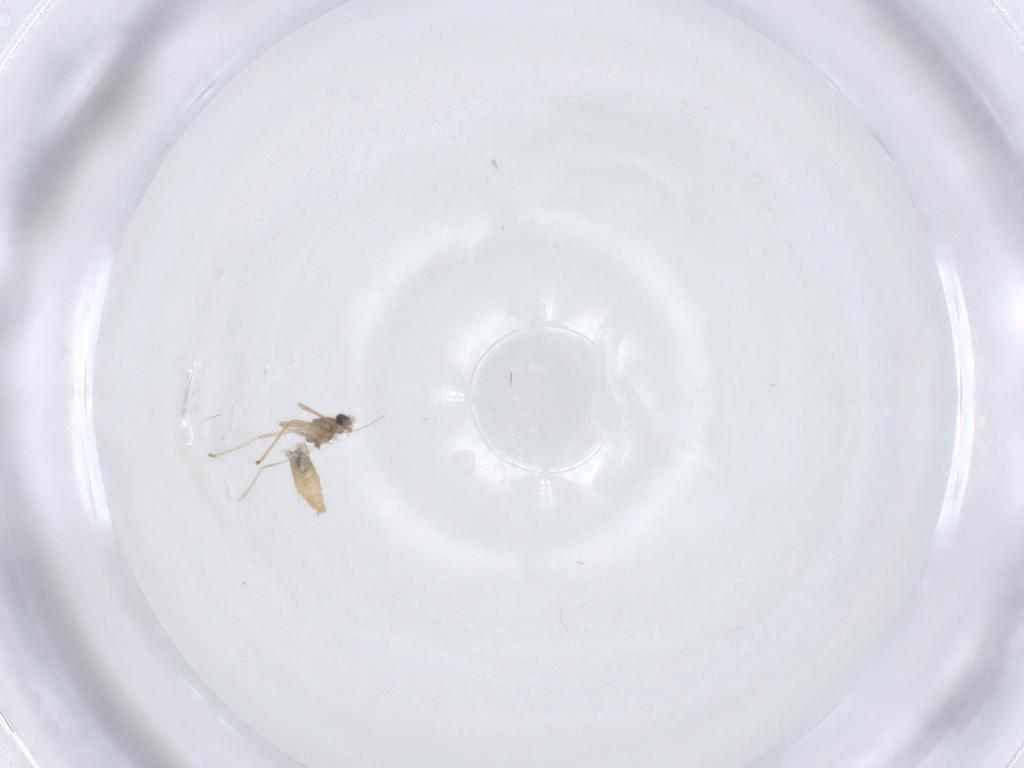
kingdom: Animalia
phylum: Arthropoda
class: Insecta
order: Diptera
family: Cecidomyiidae
